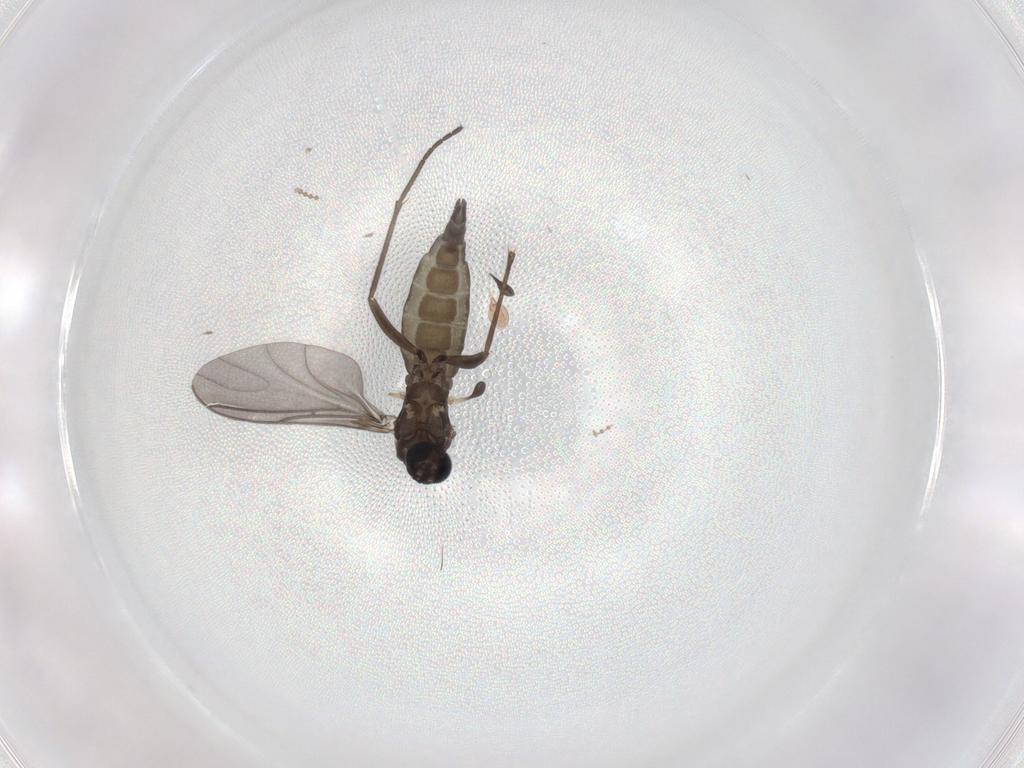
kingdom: Animalia
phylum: Arthropoda
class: Insecta
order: Diptera
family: Sciaridae
